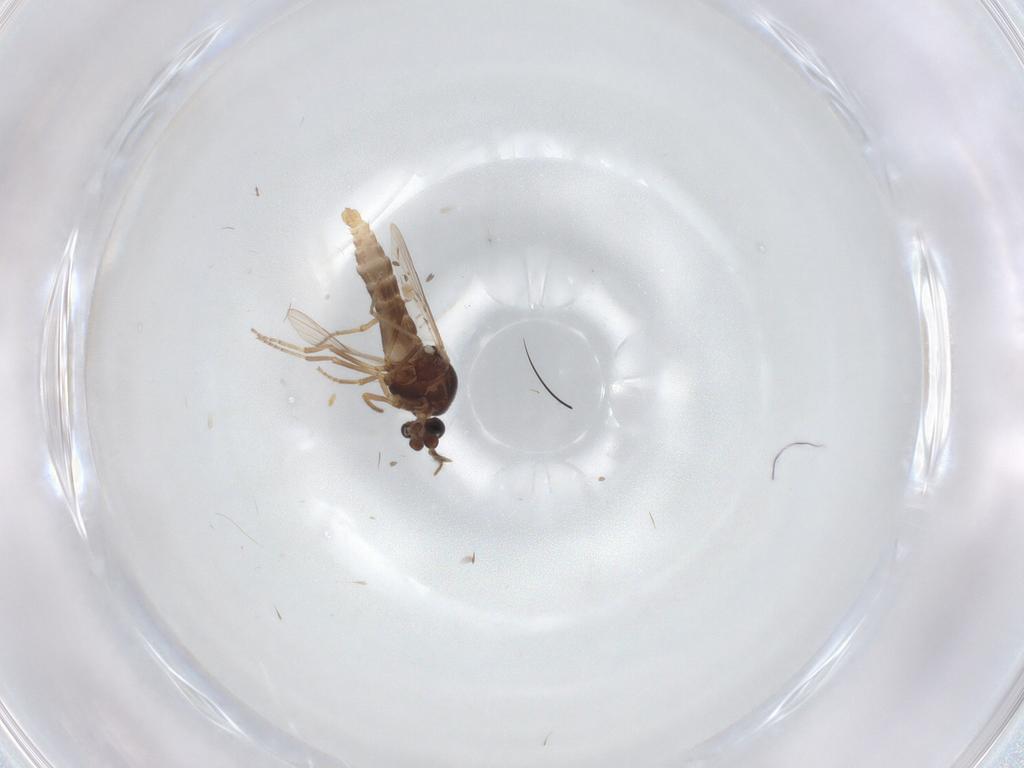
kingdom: Animalia
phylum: Arthropoda
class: Insecta
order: Diptera
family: Ceratopogonidae
